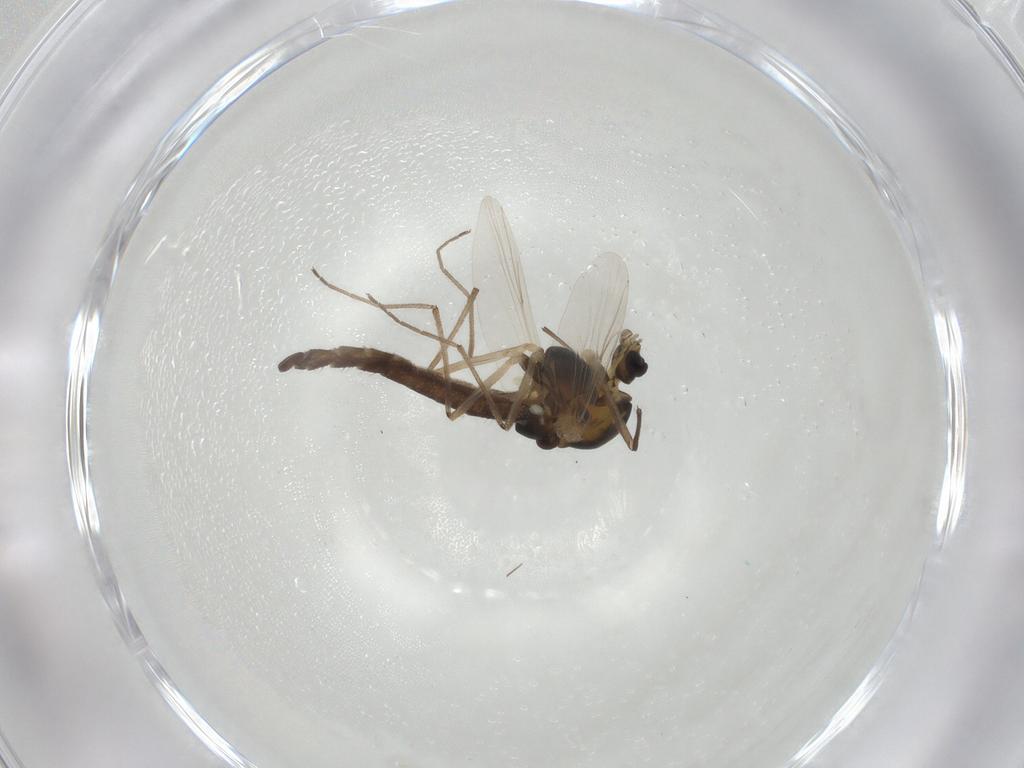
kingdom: Animalia
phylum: Arthropoda
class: Insecta
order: Diptera
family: Chironomidae
